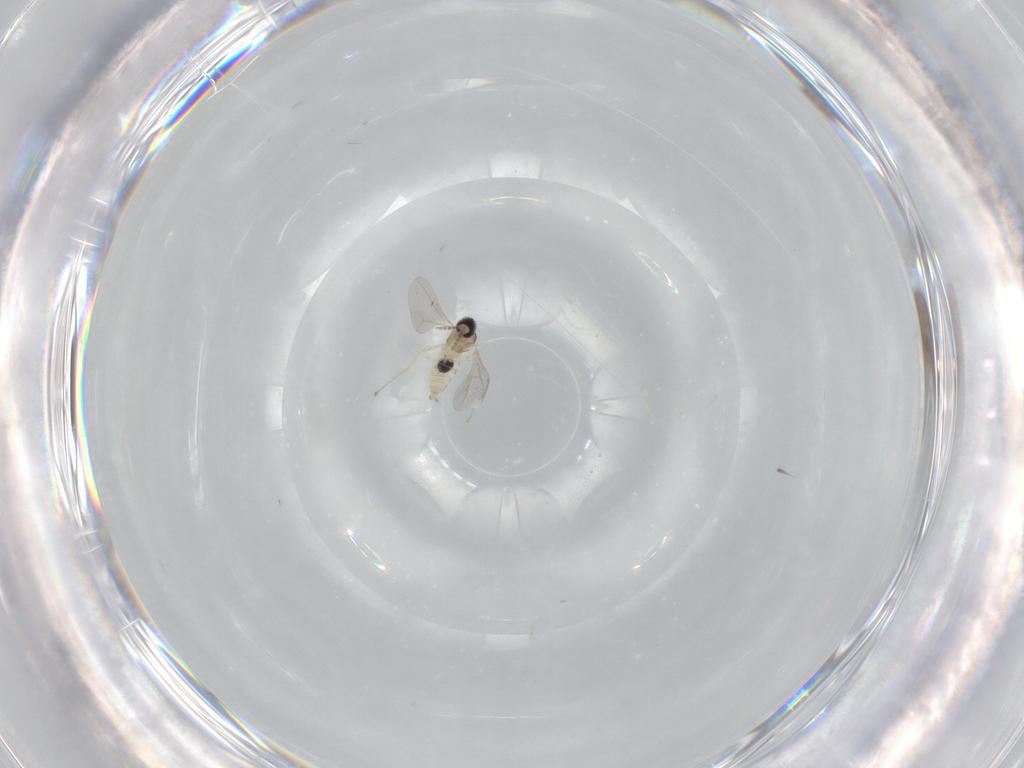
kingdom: Animalia
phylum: Arthropoda
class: Insecta
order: Diptera
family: Cecidomyiidae
